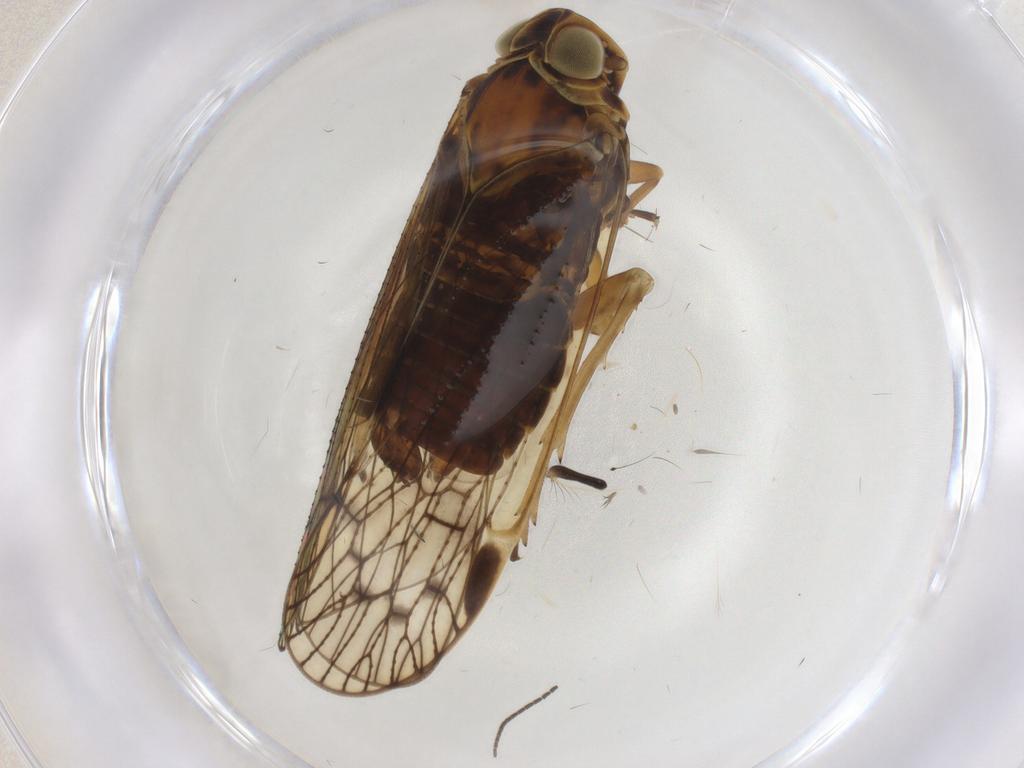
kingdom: Animalia
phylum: Arthropoda
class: Insecta
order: Hemiptera
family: Cixiidae
